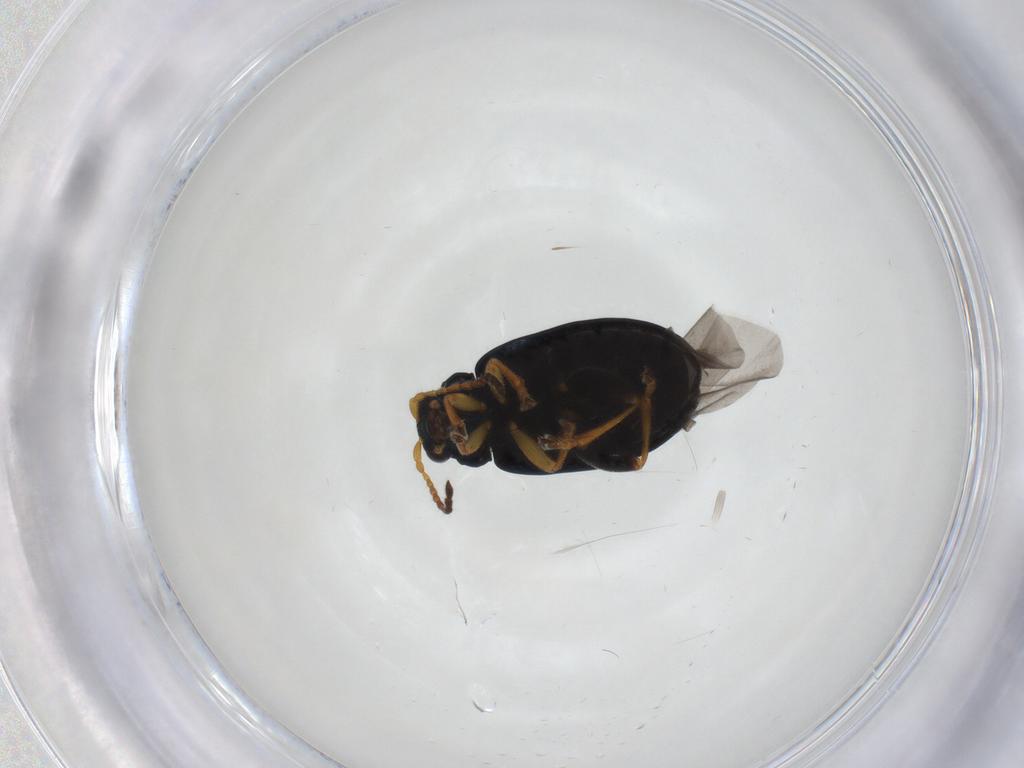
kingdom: Animalia
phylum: Arthropoda
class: Insecta
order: Coleoptera
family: Chrysomelidae
